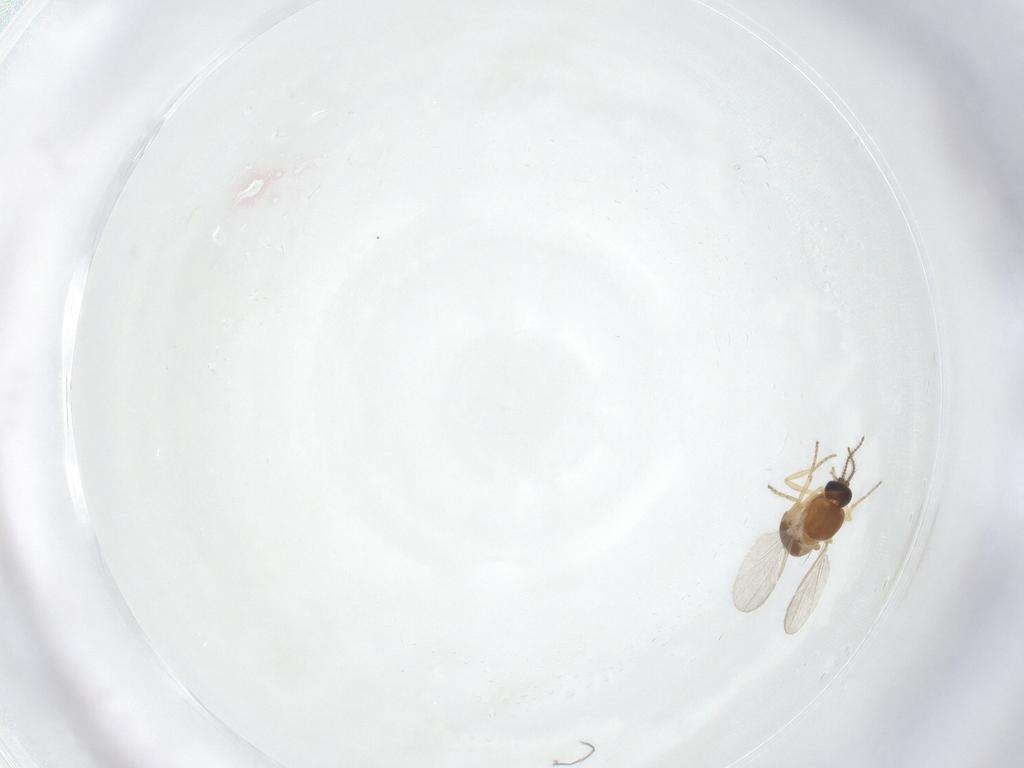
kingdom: Animalia
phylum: Arthropoda
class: Insecta
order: Diptera
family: Ceratopogonidae
